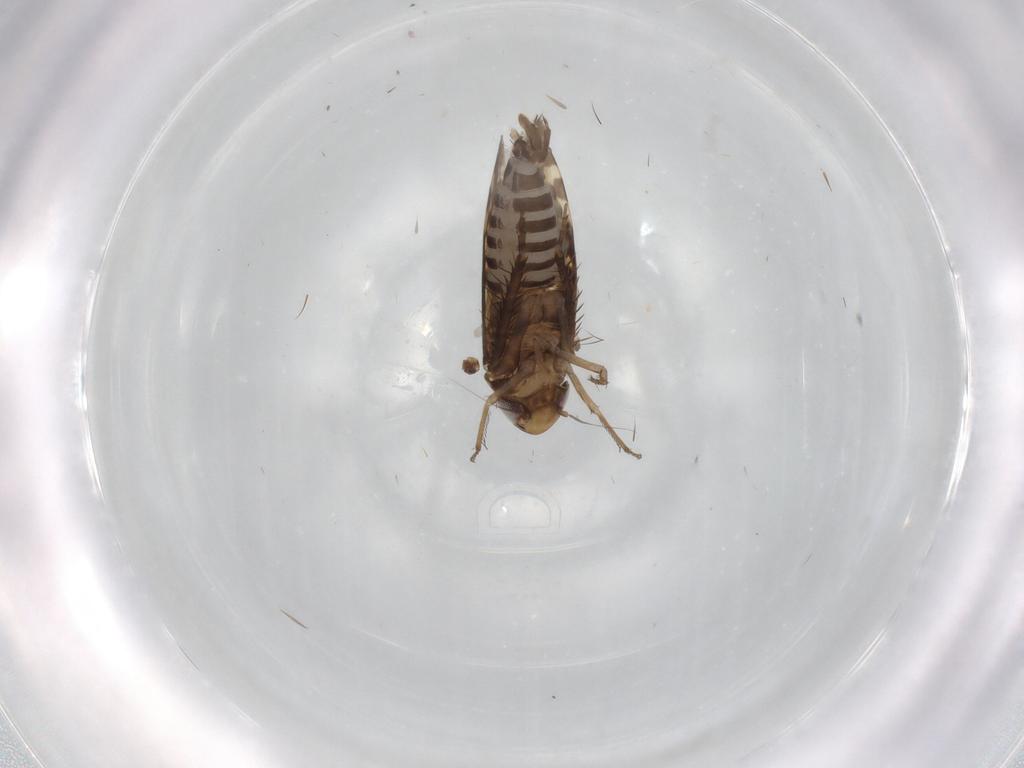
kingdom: Animalia
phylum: Arthropoda
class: Insecta
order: Hemiptera
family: Cicadellidae
